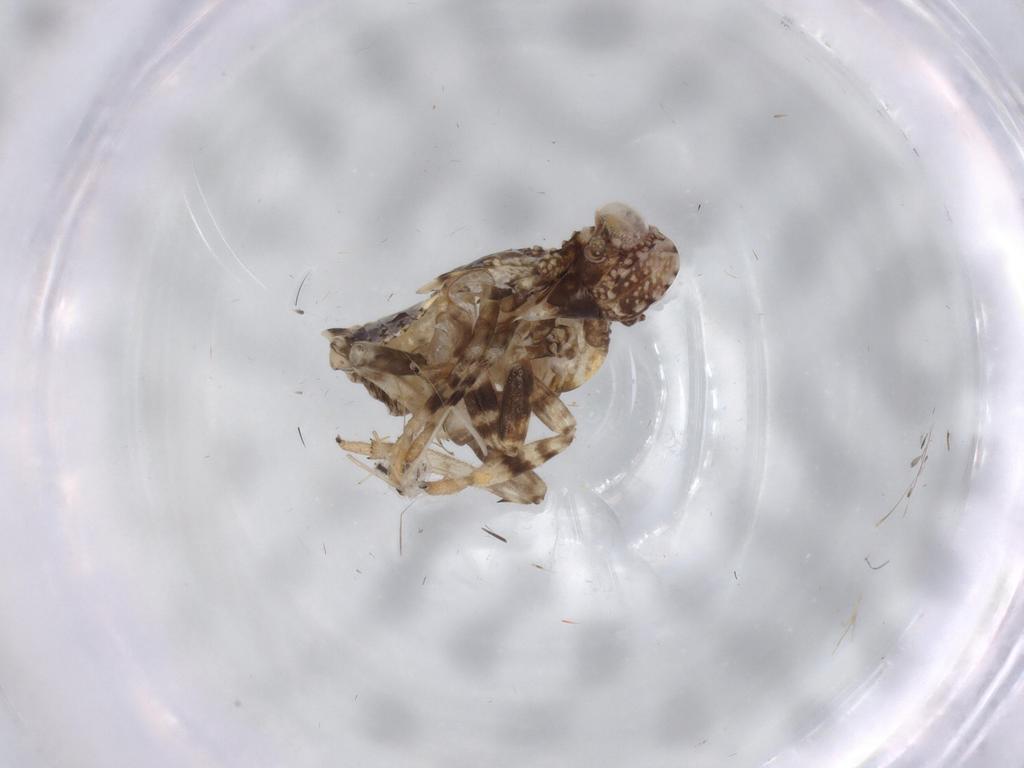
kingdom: Animalia
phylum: Arthropoda
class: Insecta
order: Hemiptera
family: Issidae
